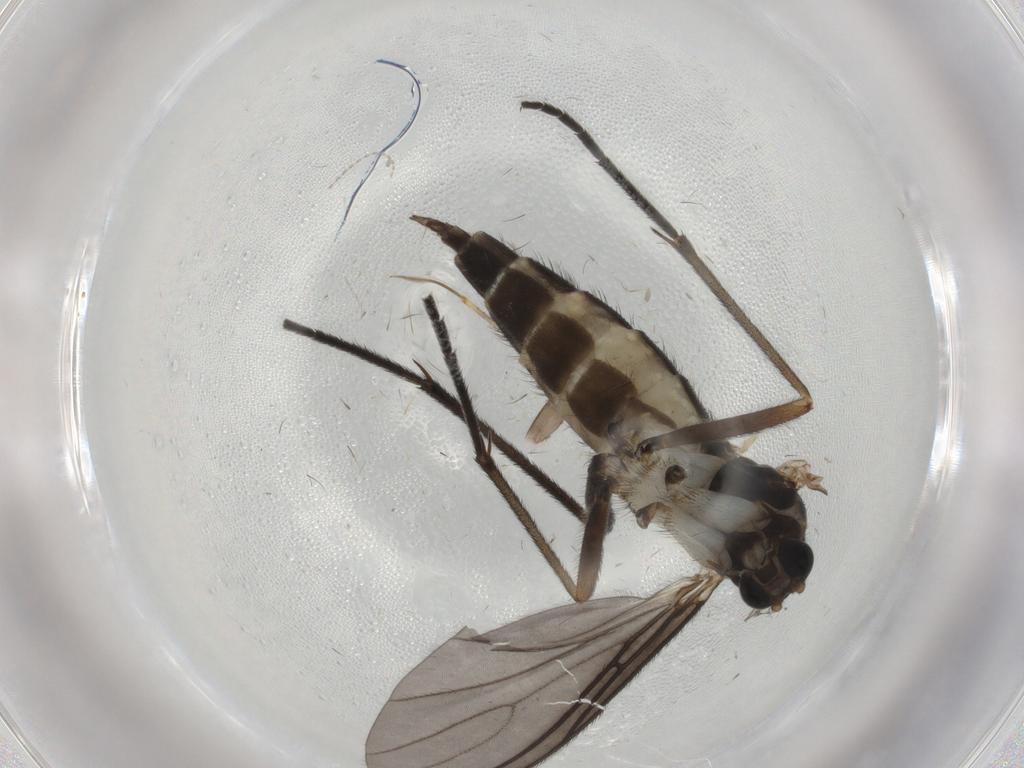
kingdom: Animalia
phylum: Arthropoda
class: Insecta
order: Diptera
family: Sciaridae
